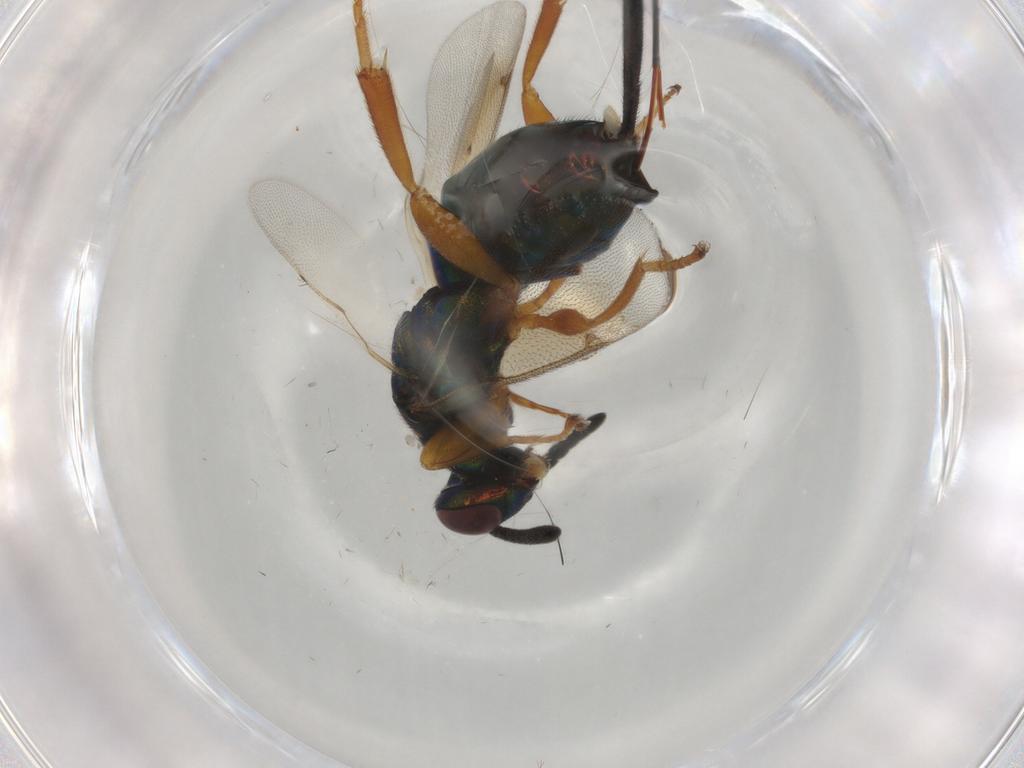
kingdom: Animalia
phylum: Arthropoda
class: Insecta
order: Hymenoptera
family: Torymidae
